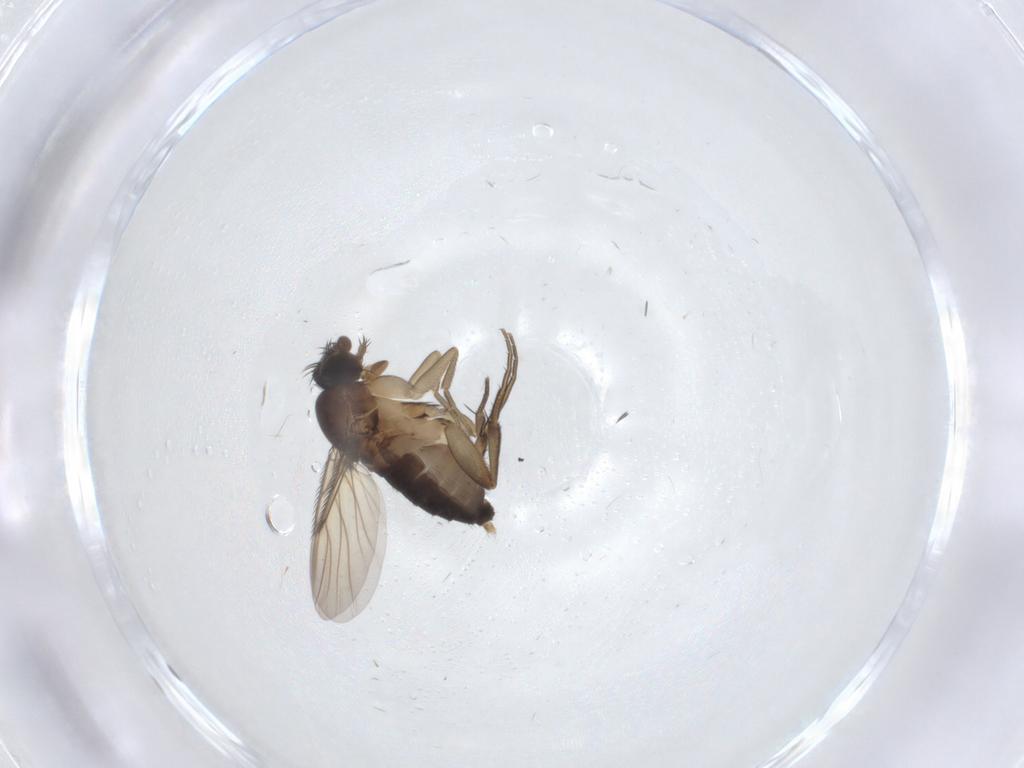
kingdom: Animalia
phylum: Arthropoda
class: Insecta
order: Diptera
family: Phoridae
